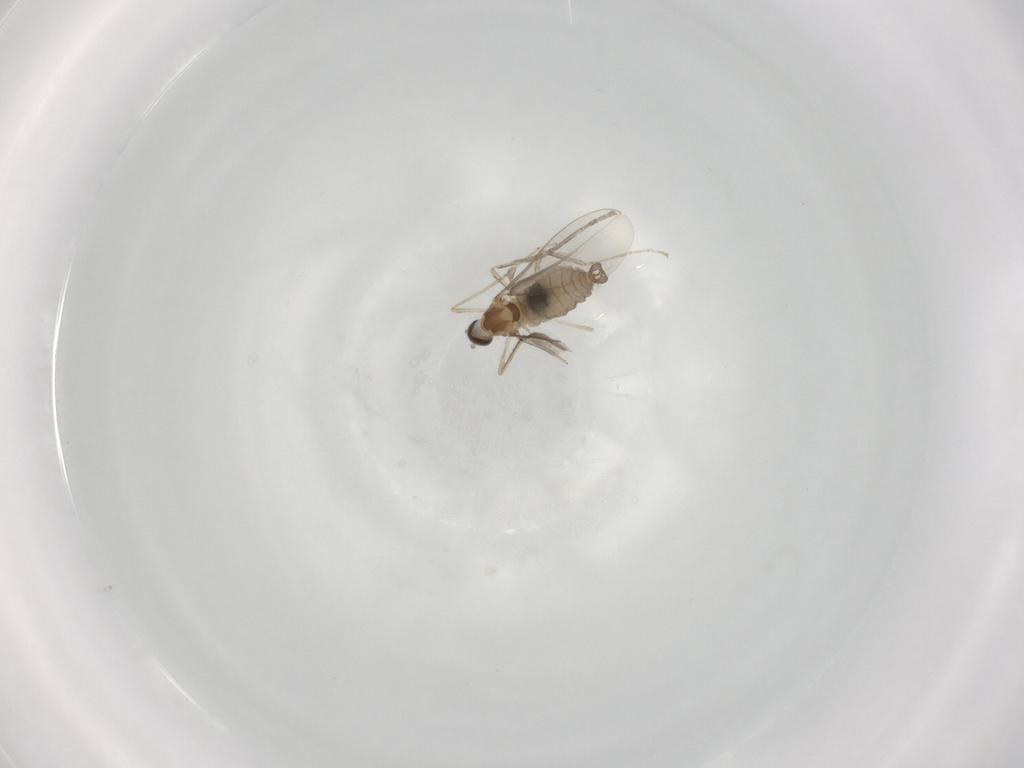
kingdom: Animalia
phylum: Arthropoda
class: Insecta
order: Diptera
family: Cecidomyiidae
